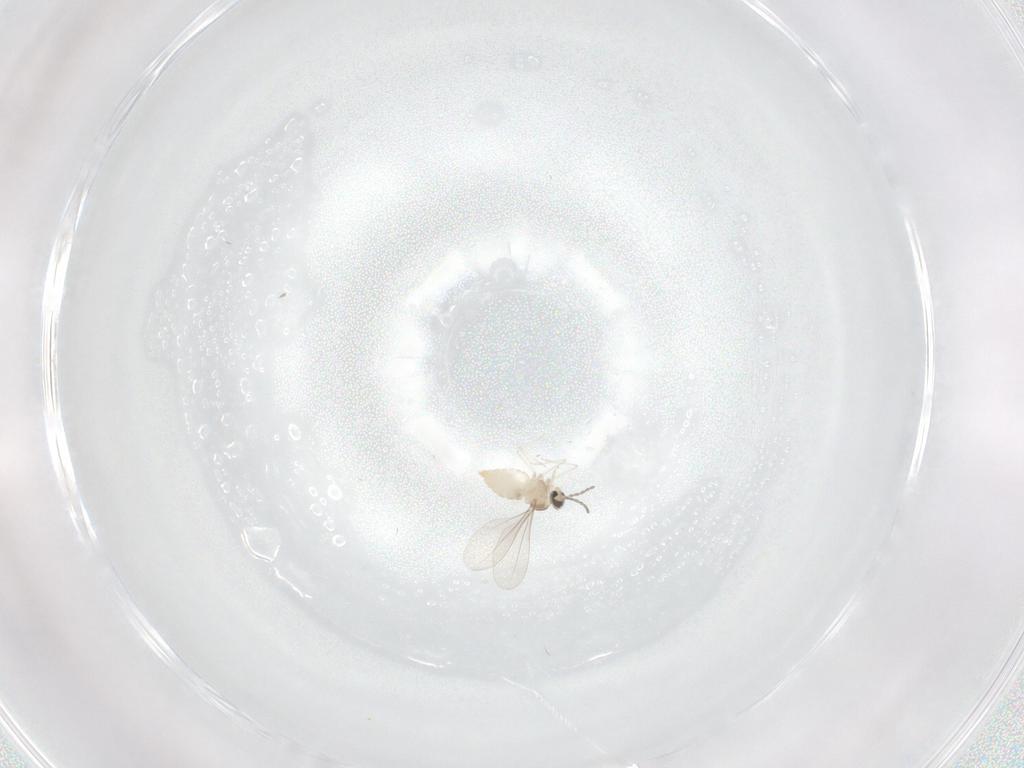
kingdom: Animalia
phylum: Arthropoda
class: Insecta
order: Diptera
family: Cecidomyiidae
